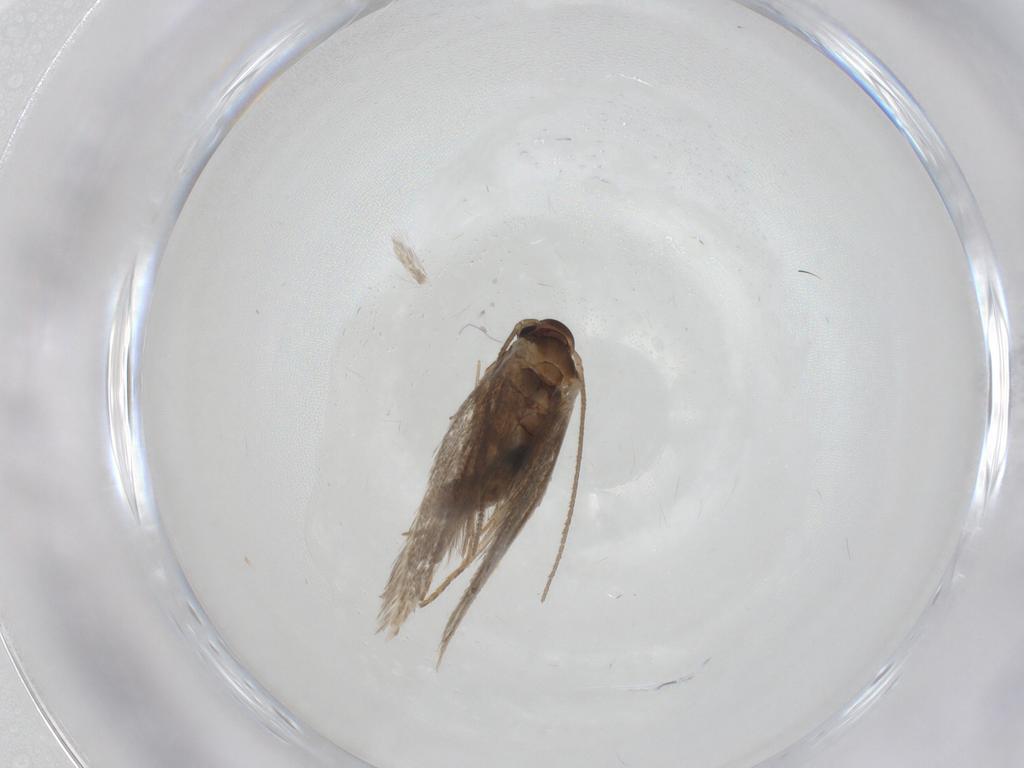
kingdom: Animalia
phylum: Arthropoda
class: Insecta
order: Lepidoptera
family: Elachistidae
